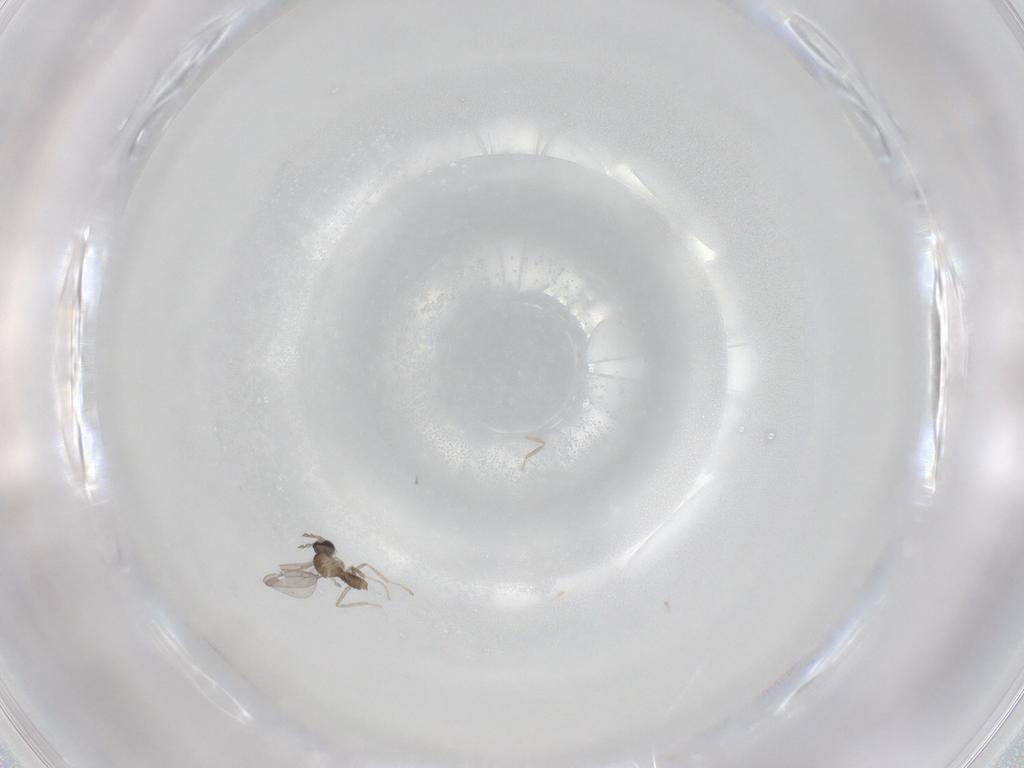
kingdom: Animalia
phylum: Arthropoda
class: Insecta
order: Diptera
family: Cecidomyiidae
